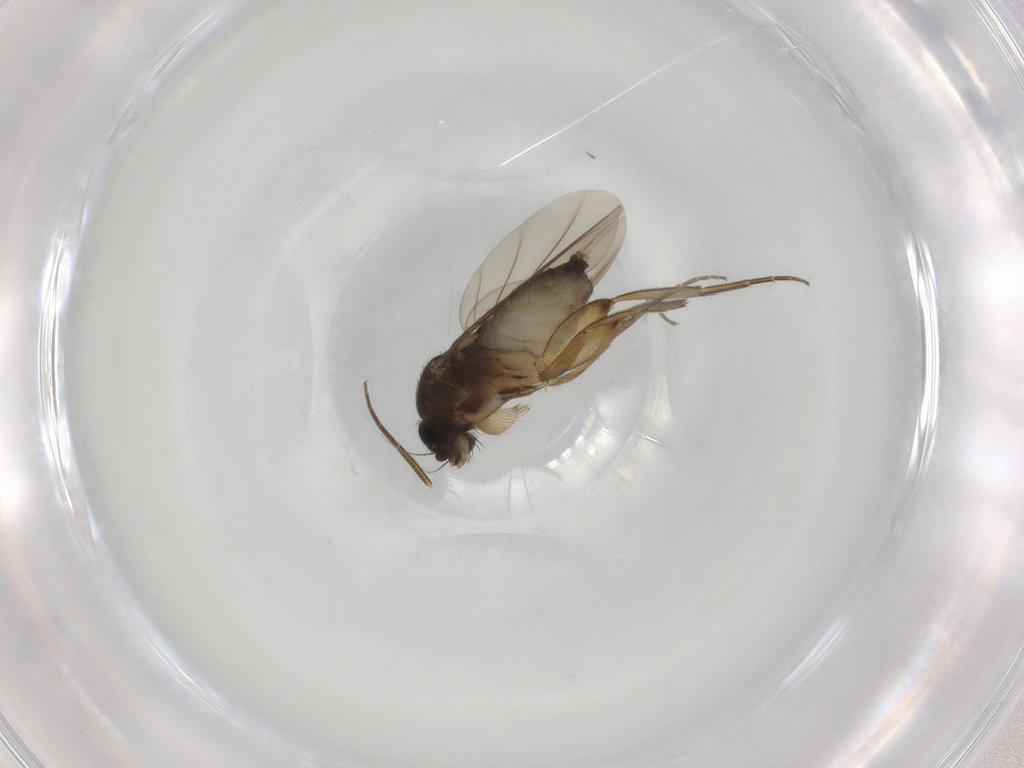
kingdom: Animalia
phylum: Arthropoda
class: Insecta
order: Diptera
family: Phoridae
